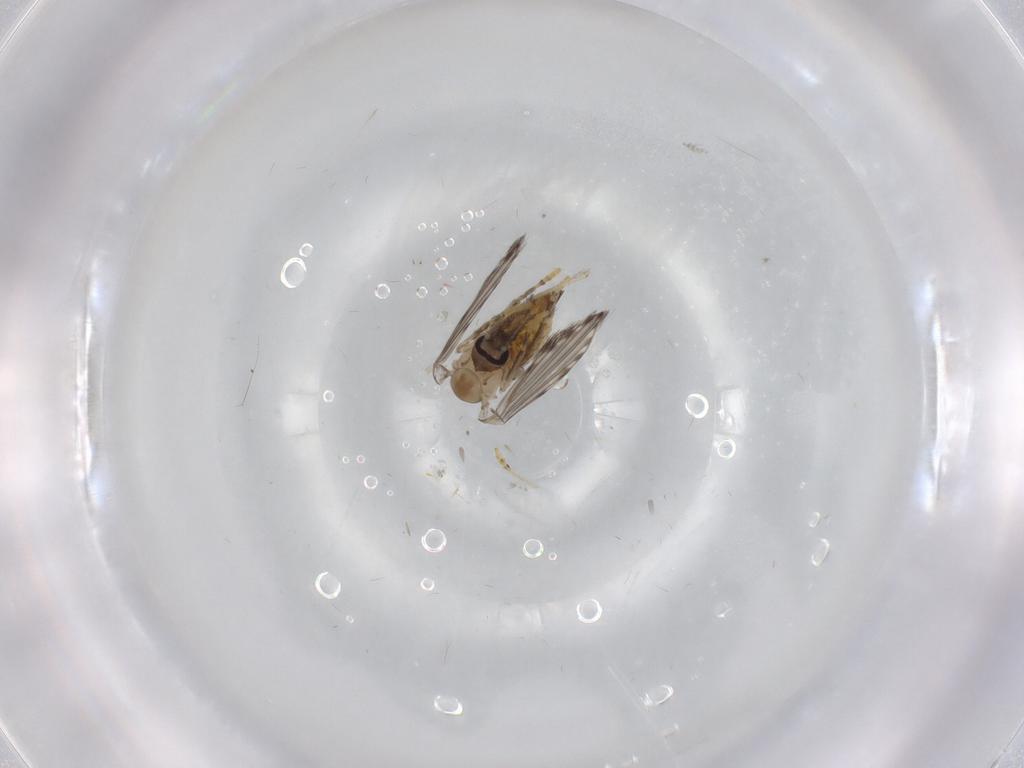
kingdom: Animalia
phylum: Arthropoda
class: Insecta
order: Diptera
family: Psychodidae
